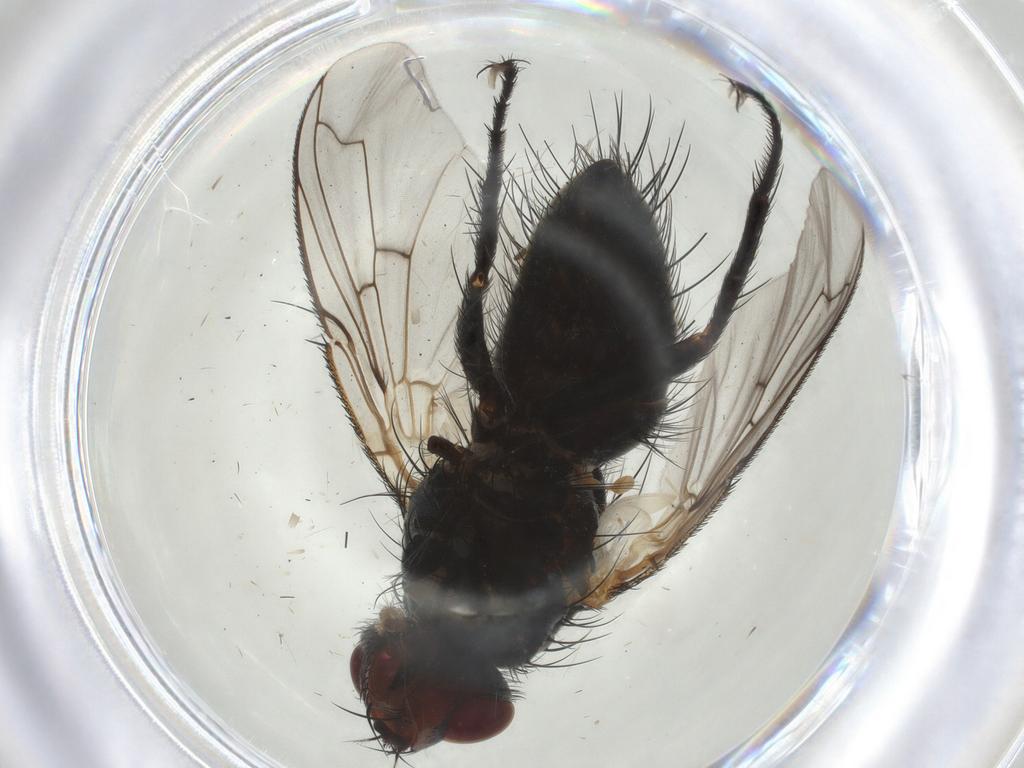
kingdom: Animalia
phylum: Arthropoda
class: Insecta
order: Diptera
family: Tachinidae
